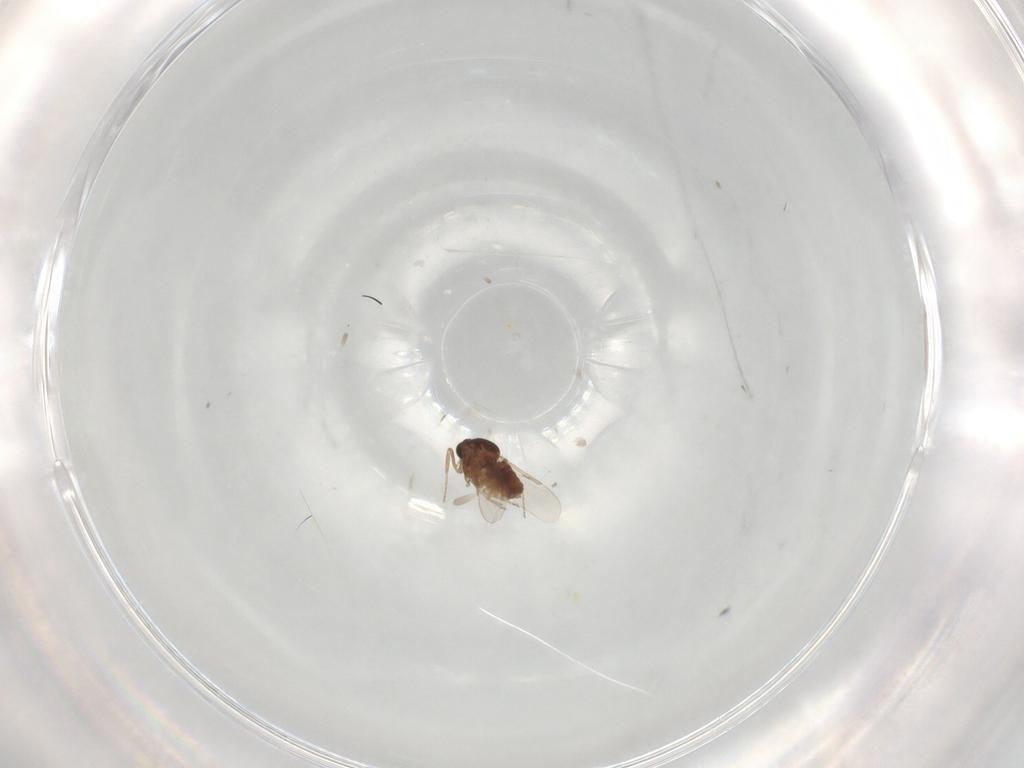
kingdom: Animalia
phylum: Arthropoda
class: Insecta
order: Diptera
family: Ceratopogonidae
